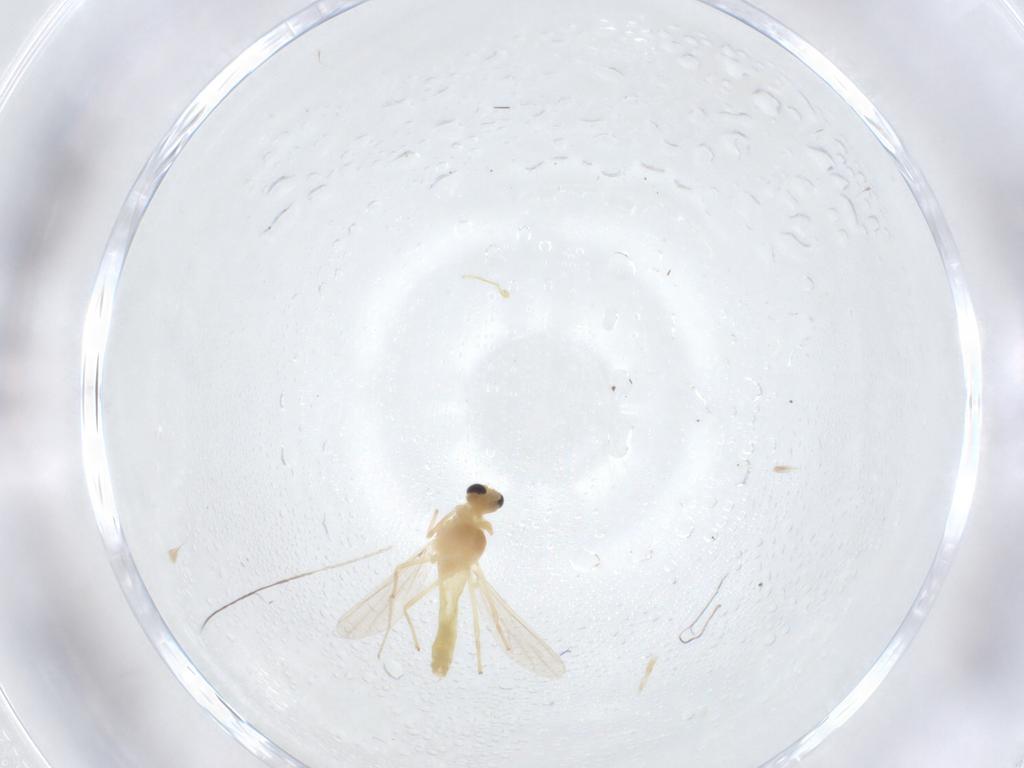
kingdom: Animalia
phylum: Arthropoda
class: Insecta
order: Diptera
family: Chironomidae
